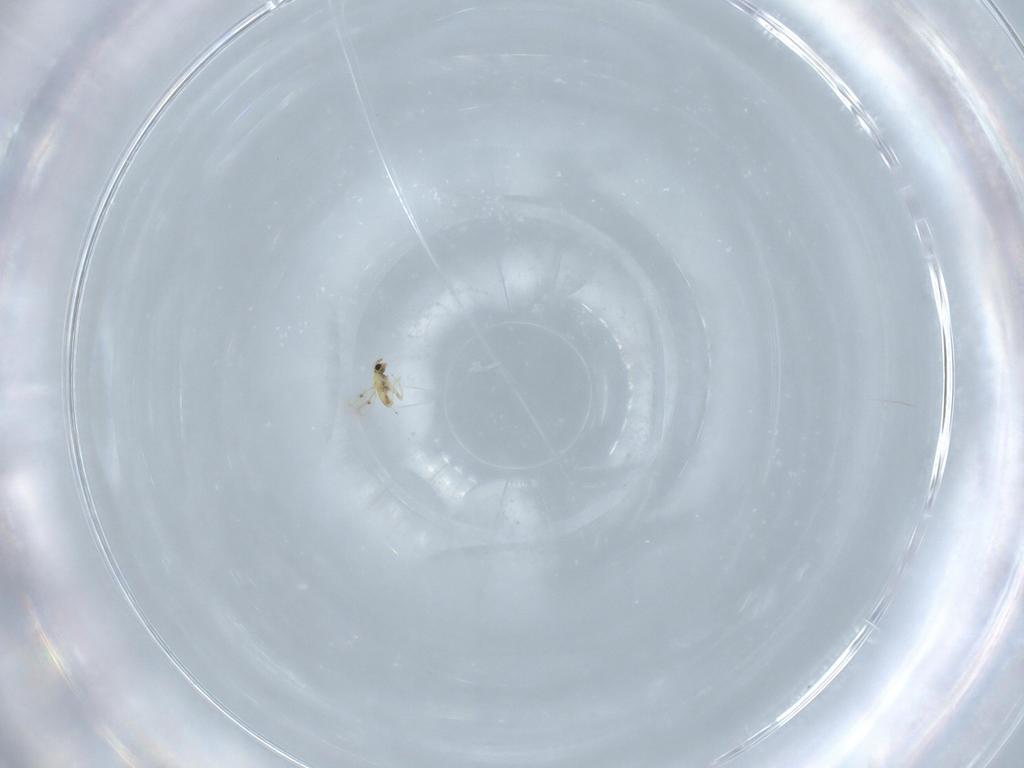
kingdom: Animalia
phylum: Arthropoda
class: Insecta
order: Hymenoptera
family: Trichogrammatidae
